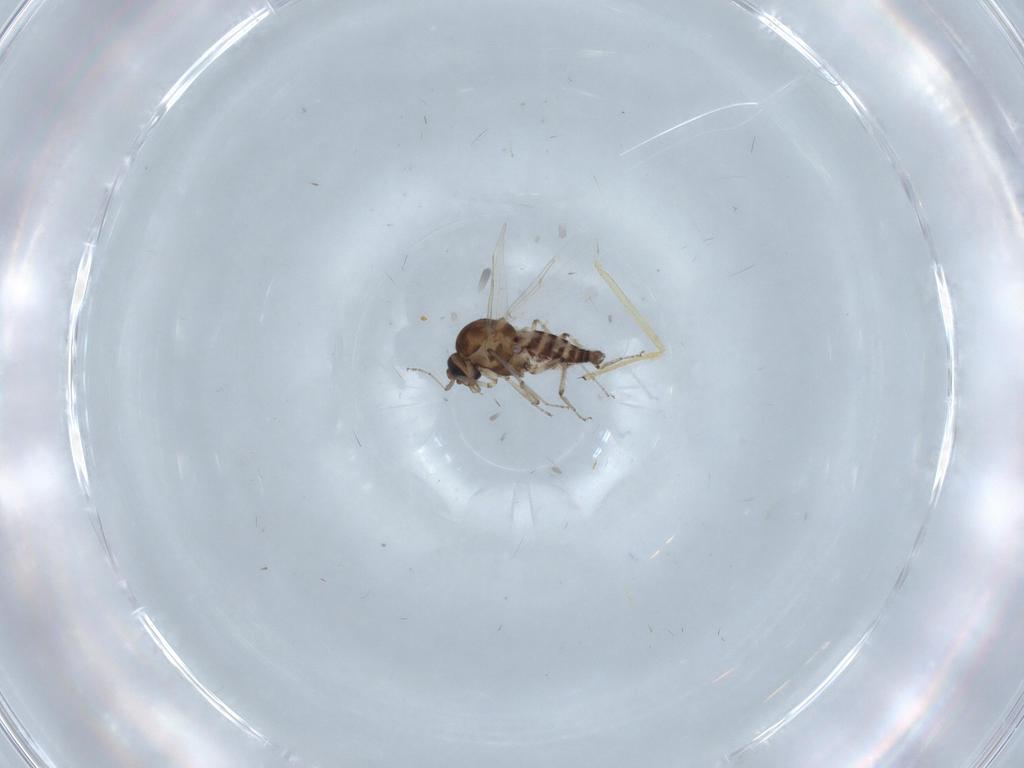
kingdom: Animalia
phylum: Arthropoda
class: Insecta
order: Diptera
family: Ceratopogonidae
